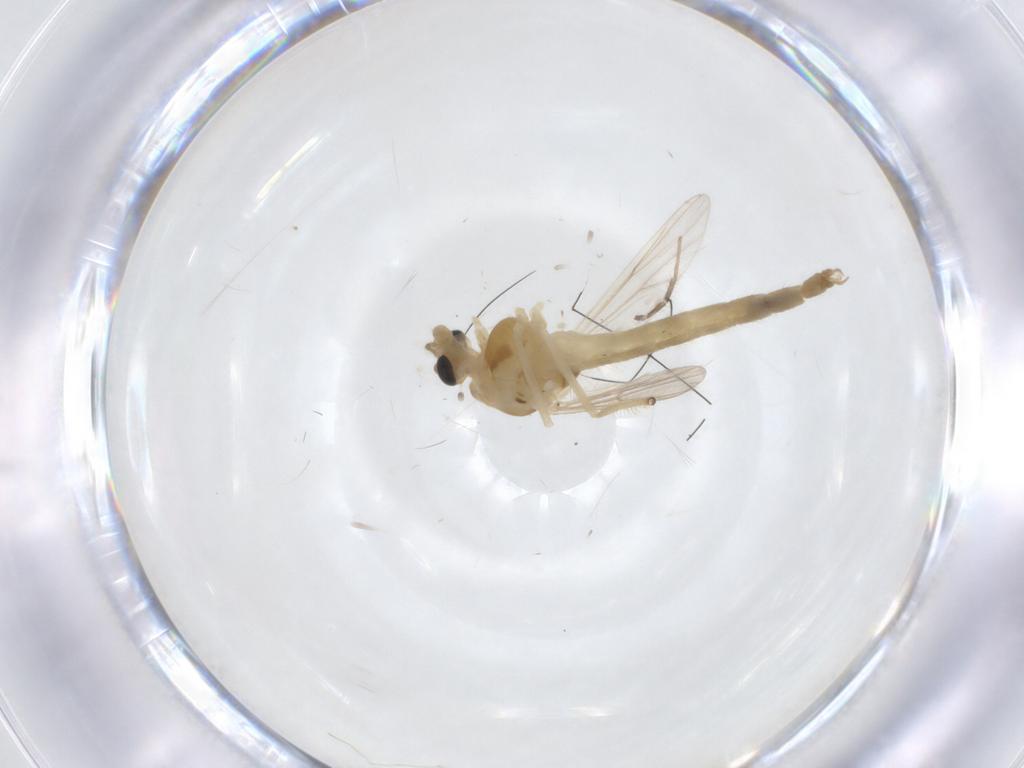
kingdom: Animalia
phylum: Arthropoda
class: Insecta
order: Diptera
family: Chironomidae
